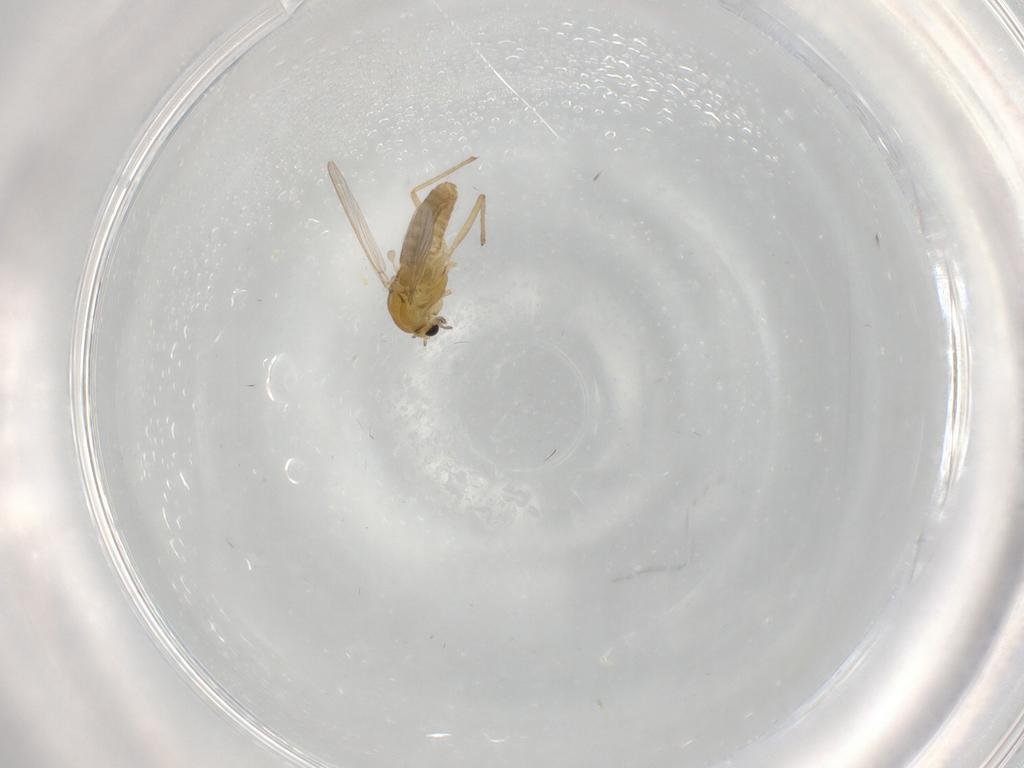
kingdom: Animalia
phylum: Arthropoda
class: Insecta
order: Diptera
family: Chironomidae
